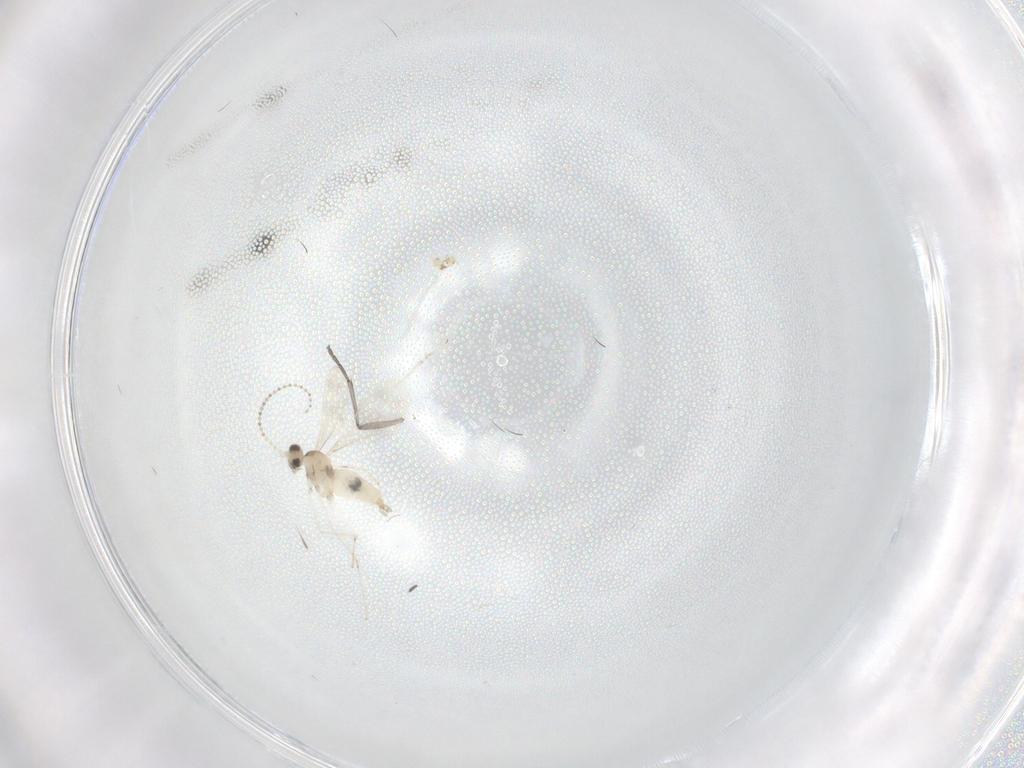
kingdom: Animalia
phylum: Arthropoda
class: Insecta
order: Diptera
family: Sciaridae
